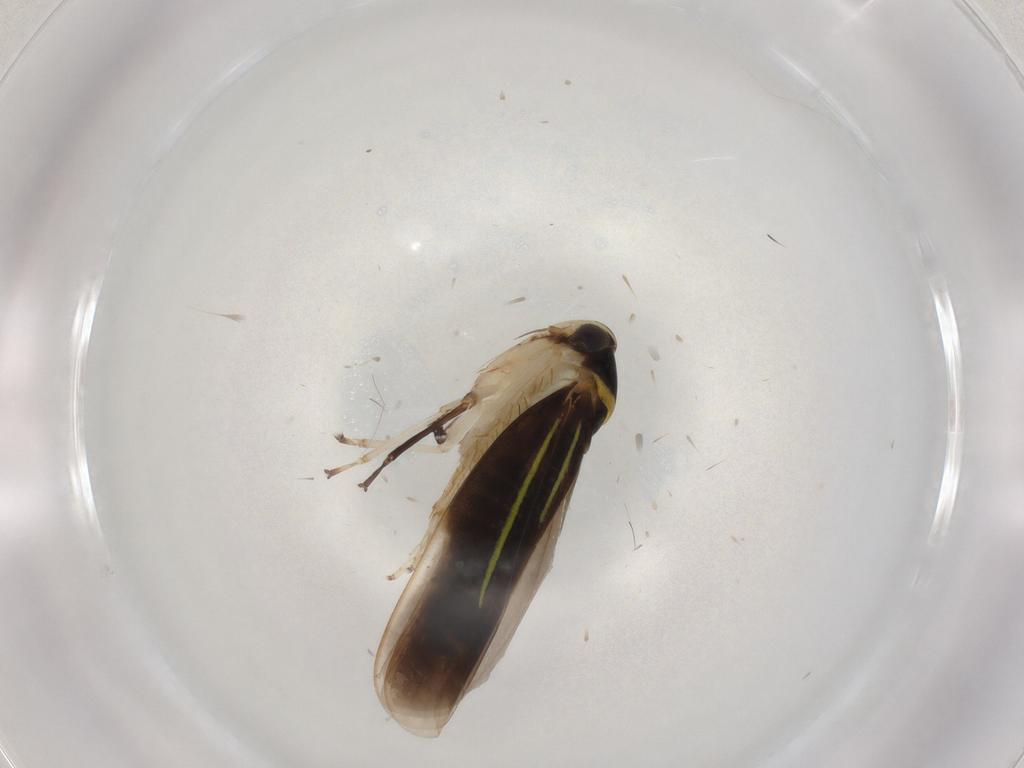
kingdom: Animalia
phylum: Arthropoda
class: Insecta
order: Hemiptera
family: Cicadellidae
